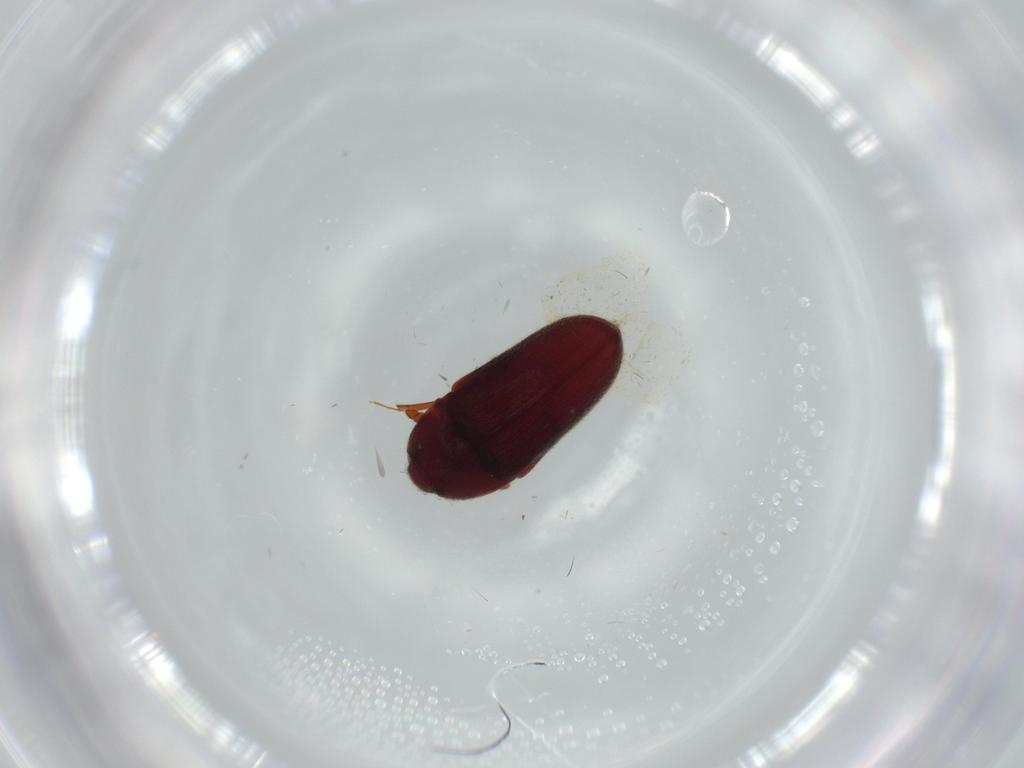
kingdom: Animalia
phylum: Arthropoda
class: Insecta
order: Coleoptera
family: Throscidae
